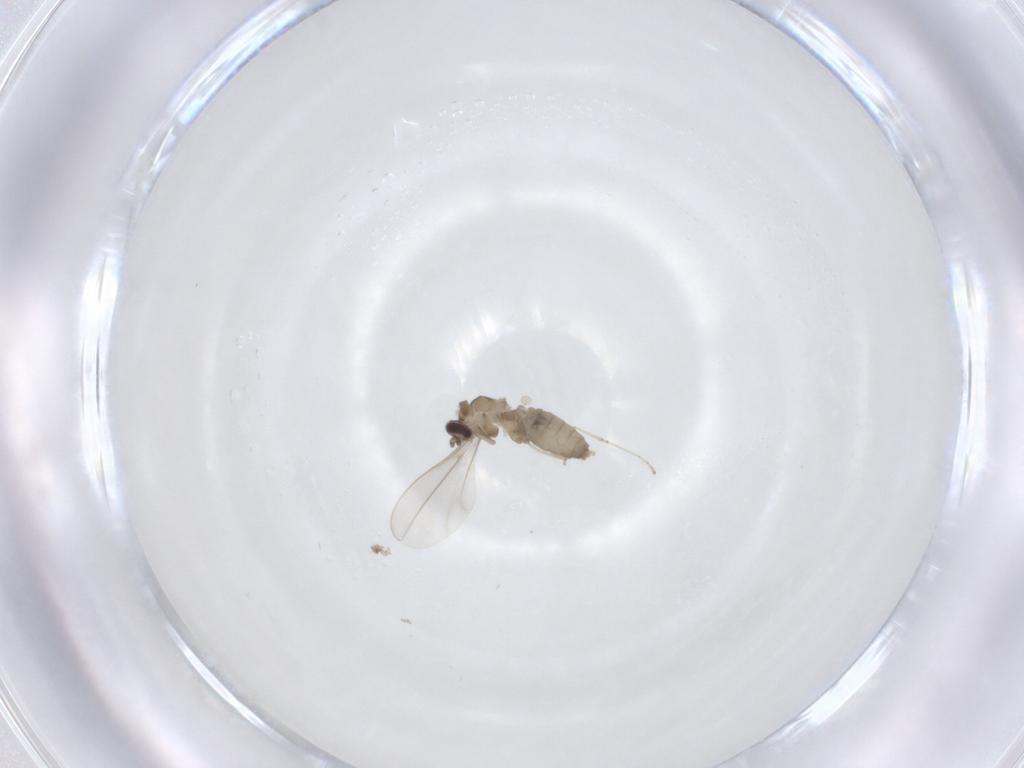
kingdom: Animalia
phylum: Arthropoda
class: Insecta
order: Diptera
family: Cecidomyiidae
